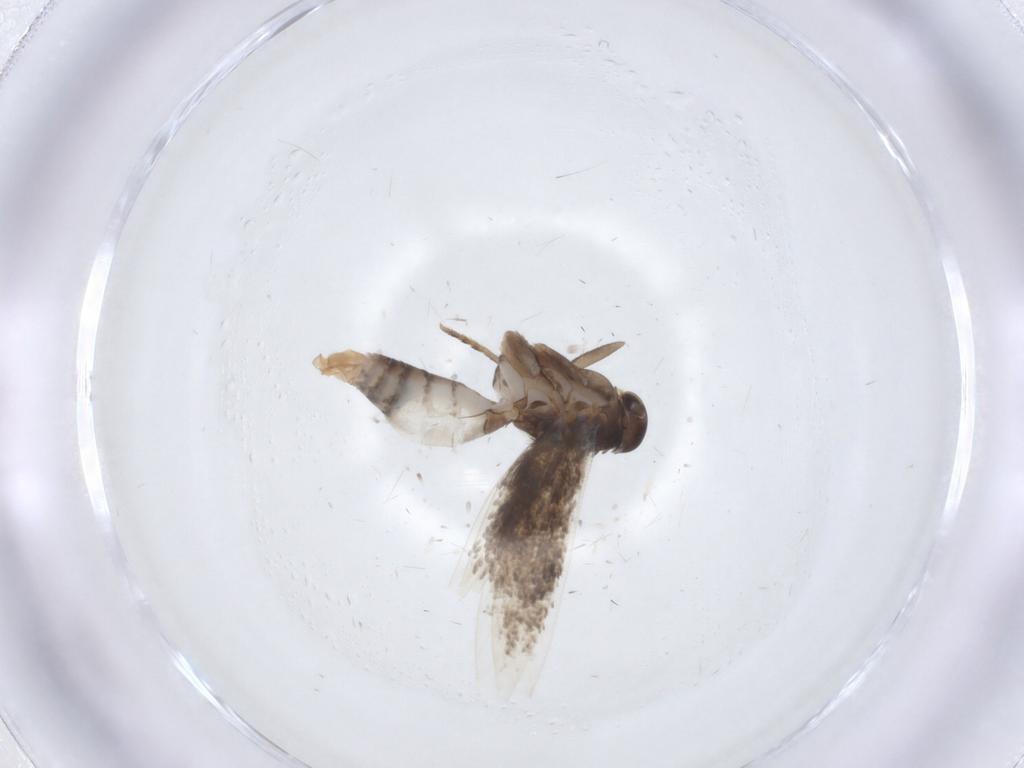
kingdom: Animalia
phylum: Arthropoda
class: Insecta
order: Lepidoptera
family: Elachistidae
